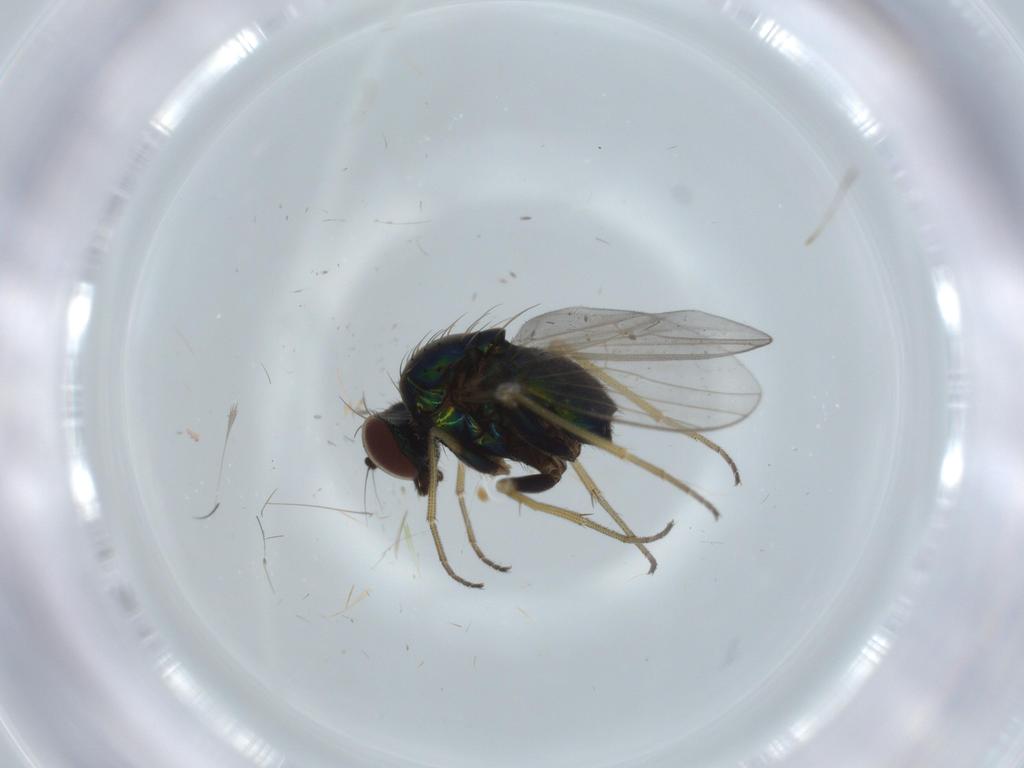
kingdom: Animalia
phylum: Arthropoda
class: Insecta
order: Diptera
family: Dolichopodidae
